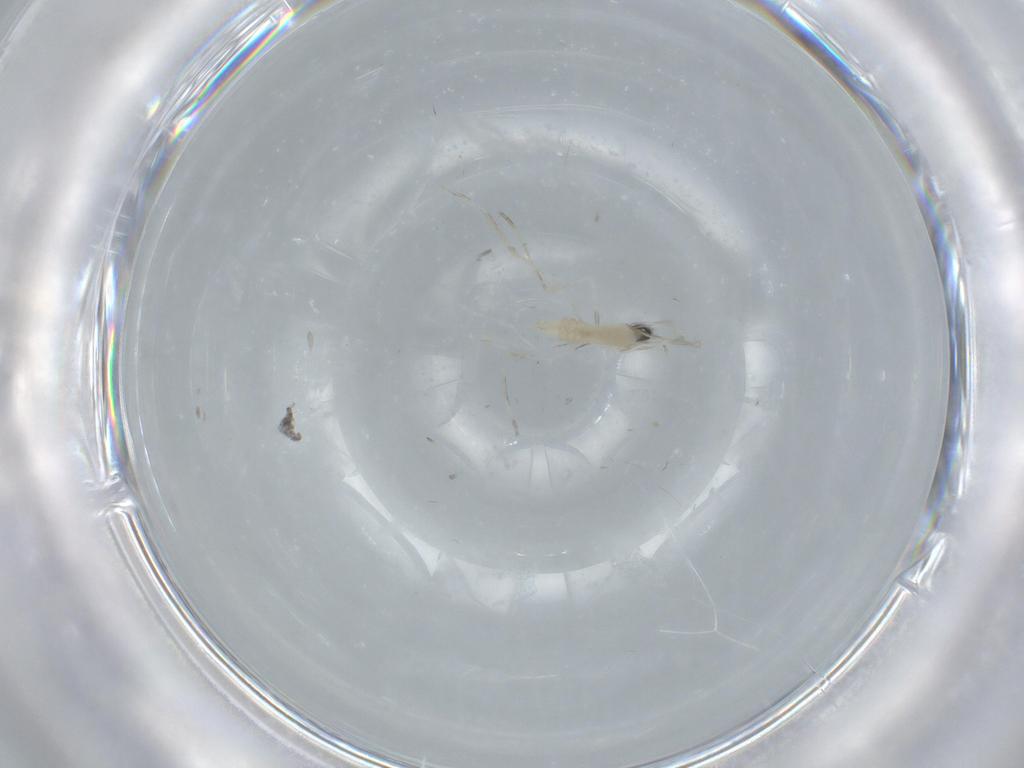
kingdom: Animalia
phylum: Arthropoda
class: Insecta
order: Diptera
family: Cecidomyiidae
